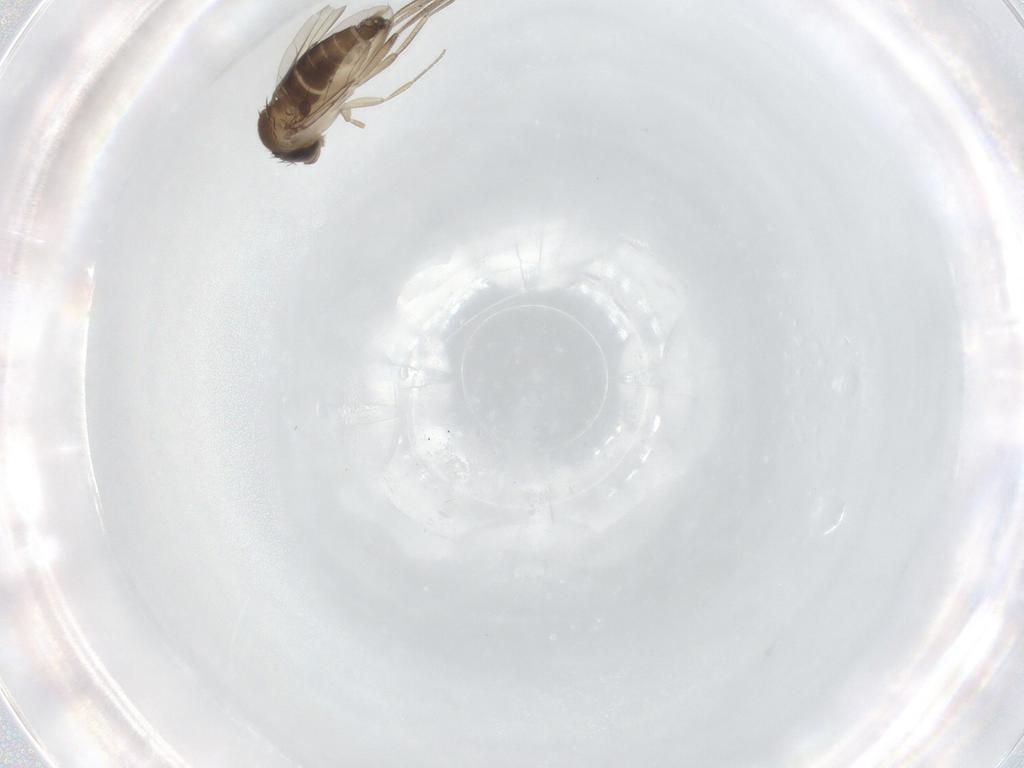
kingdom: Animalia
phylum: Arthropoda
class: Insecta
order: Diptera
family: Phoridae
